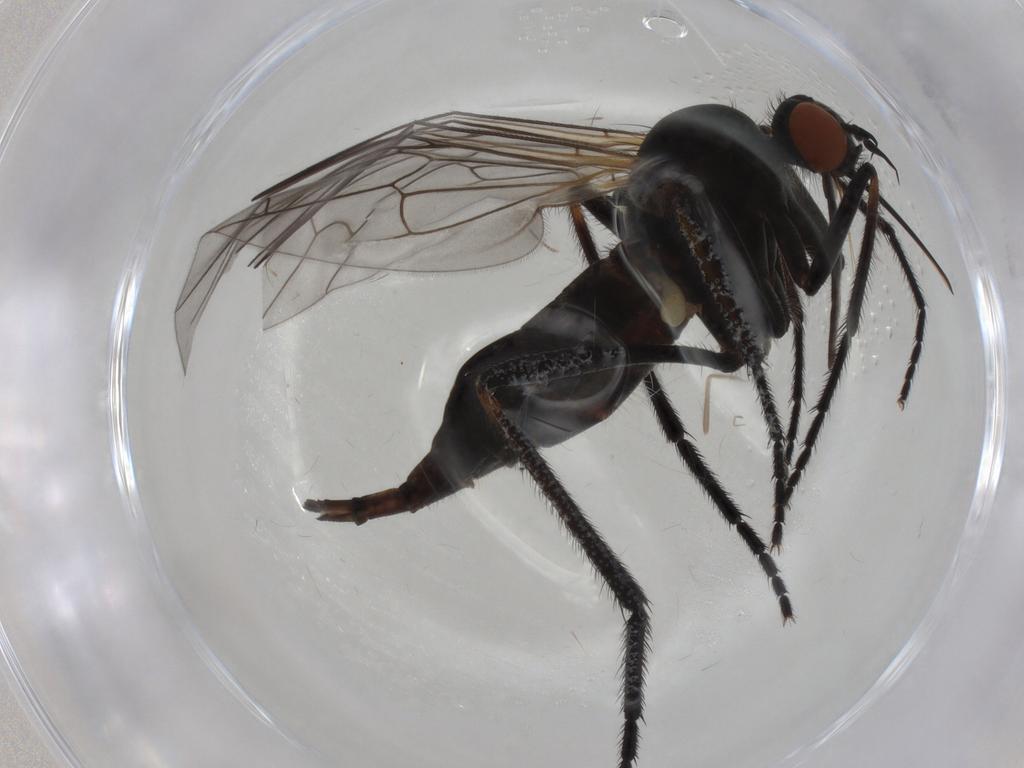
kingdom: Animalia
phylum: Arthropoda
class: Insecta
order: Diptera
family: Empididae
